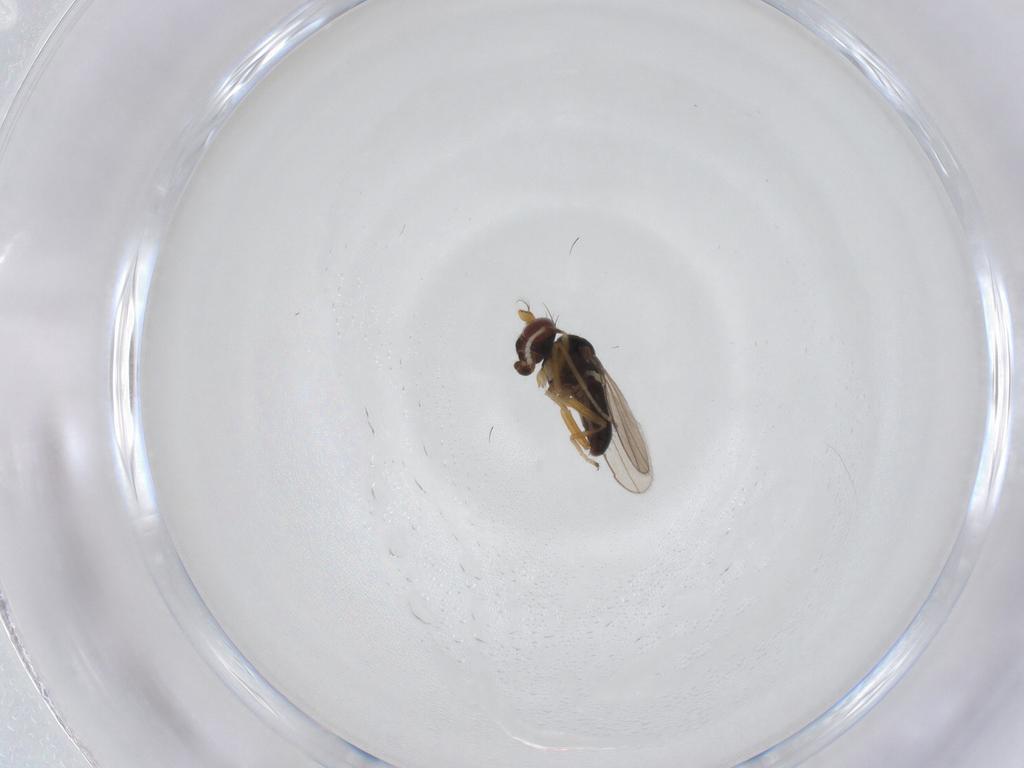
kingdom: Animalia
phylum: Arthropoda
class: Insecta
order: Diptera
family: Ephydridae
